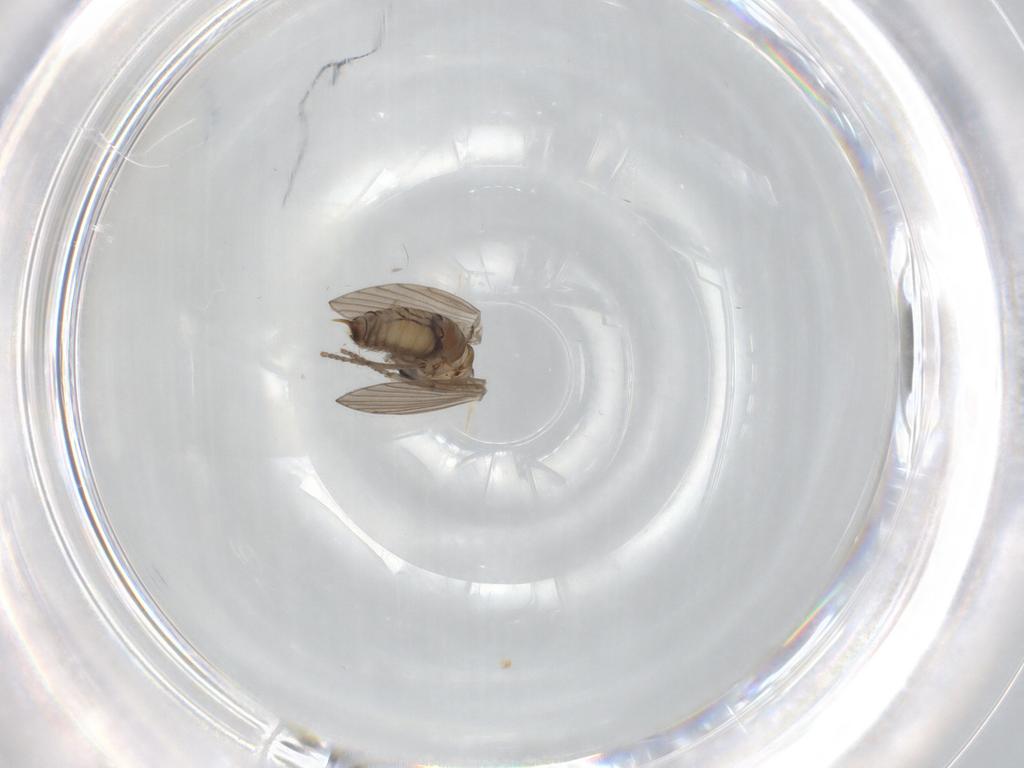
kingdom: Animalia
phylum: Arthropoda
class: Insecta
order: Diptera
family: Psychodidae
